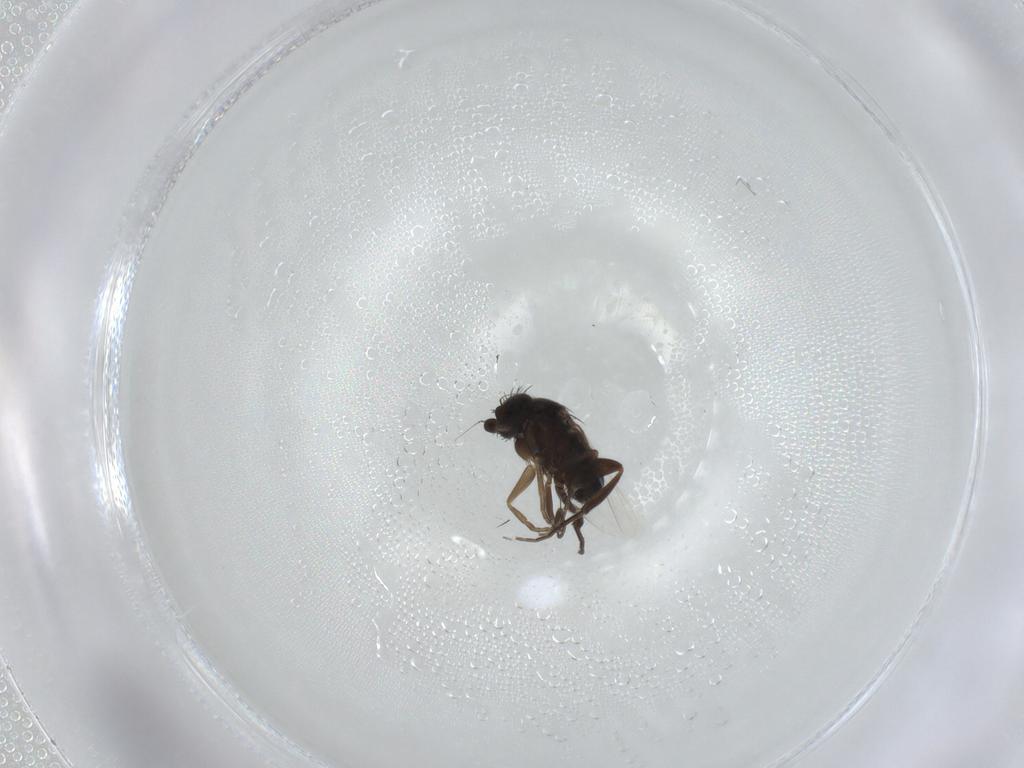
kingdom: Animalia
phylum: Arthropoda
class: Insecta
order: Diptera
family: Phoridae
